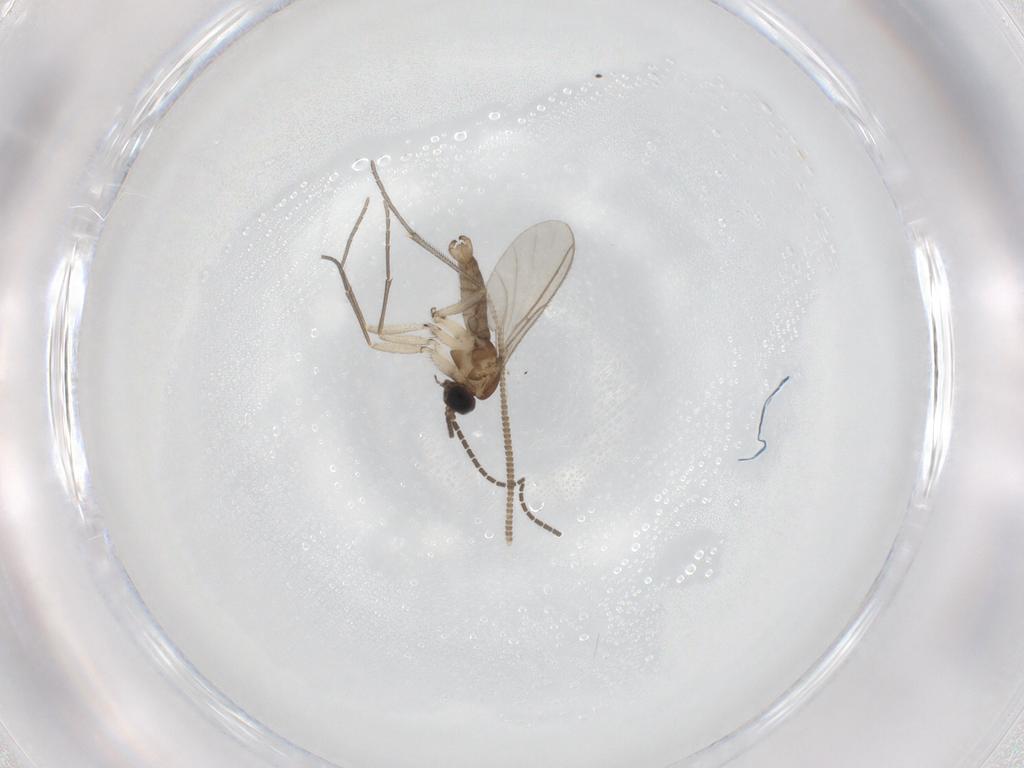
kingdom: Animalia
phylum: Arthropoda
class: Insecta
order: Diptera
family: Sciaridae
